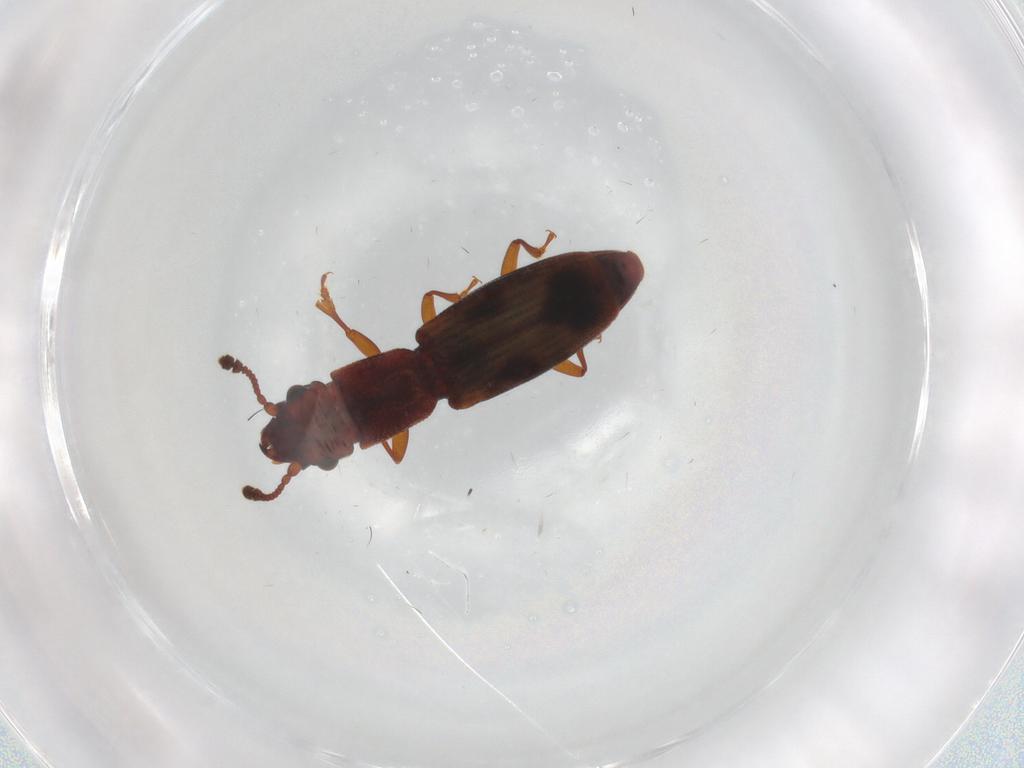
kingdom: Animalia
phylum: Arthropoda
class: Insecta
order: Coleoptera
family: Monotomidae
